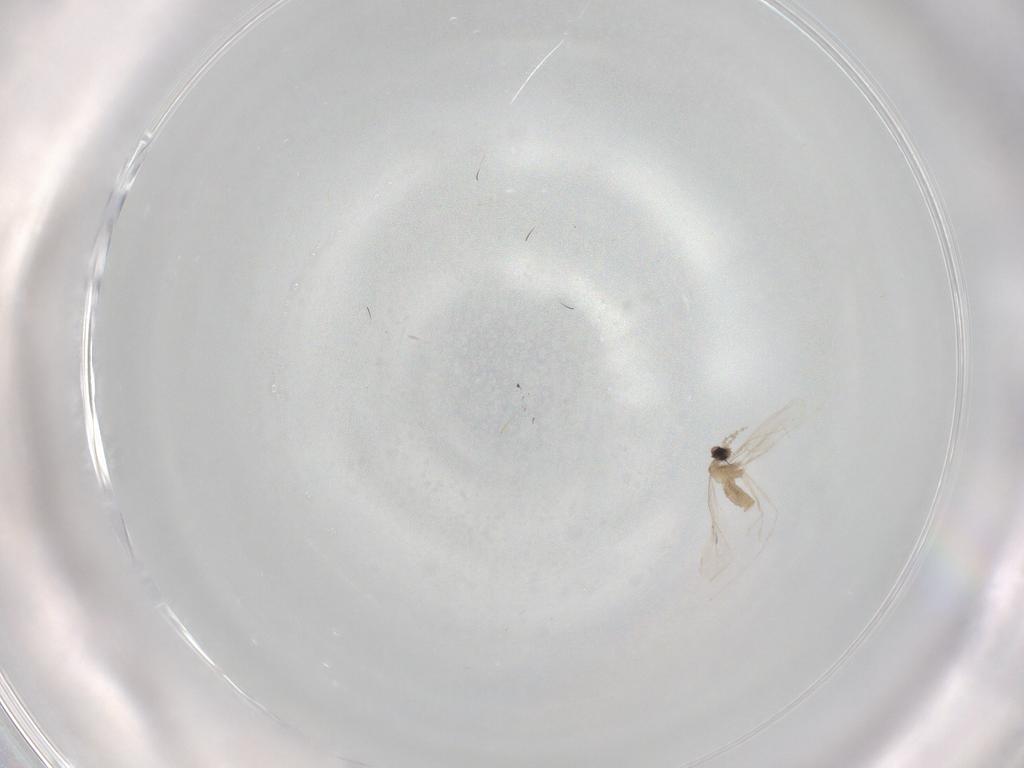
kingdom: Animalia
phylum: Arthropoda
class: Insecta
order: Diptera
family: Cecidomyiidae
